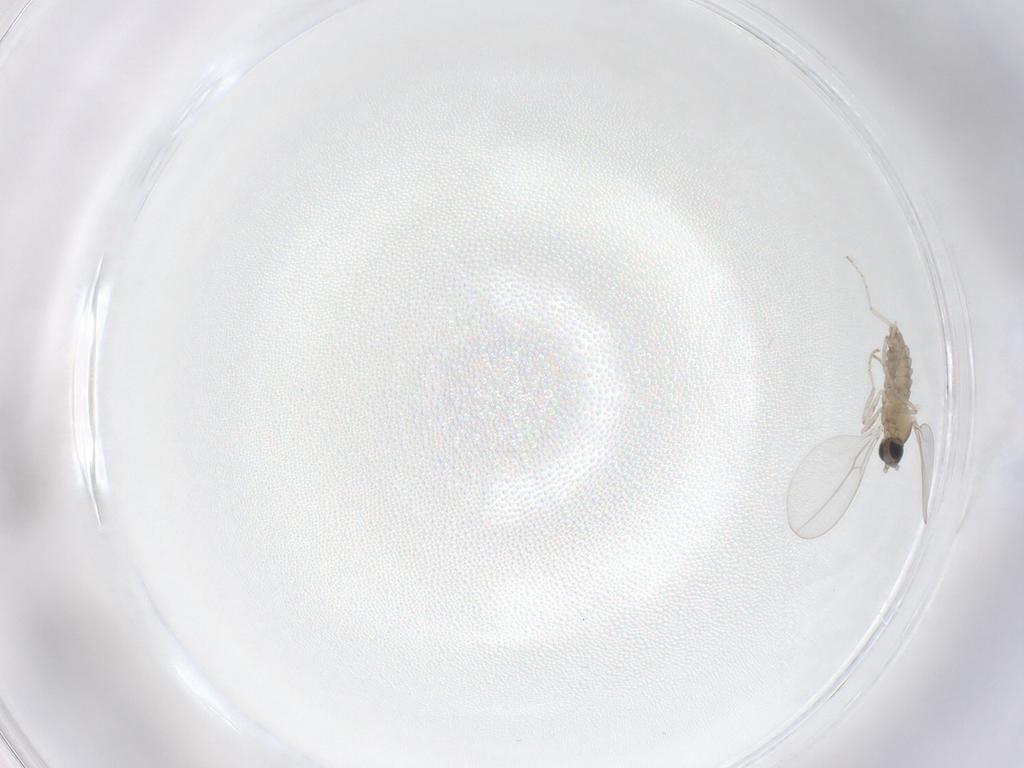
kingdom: Animalia
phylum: Arthropoda
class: Insecta
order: Diptera
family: Cecidomyiidae
